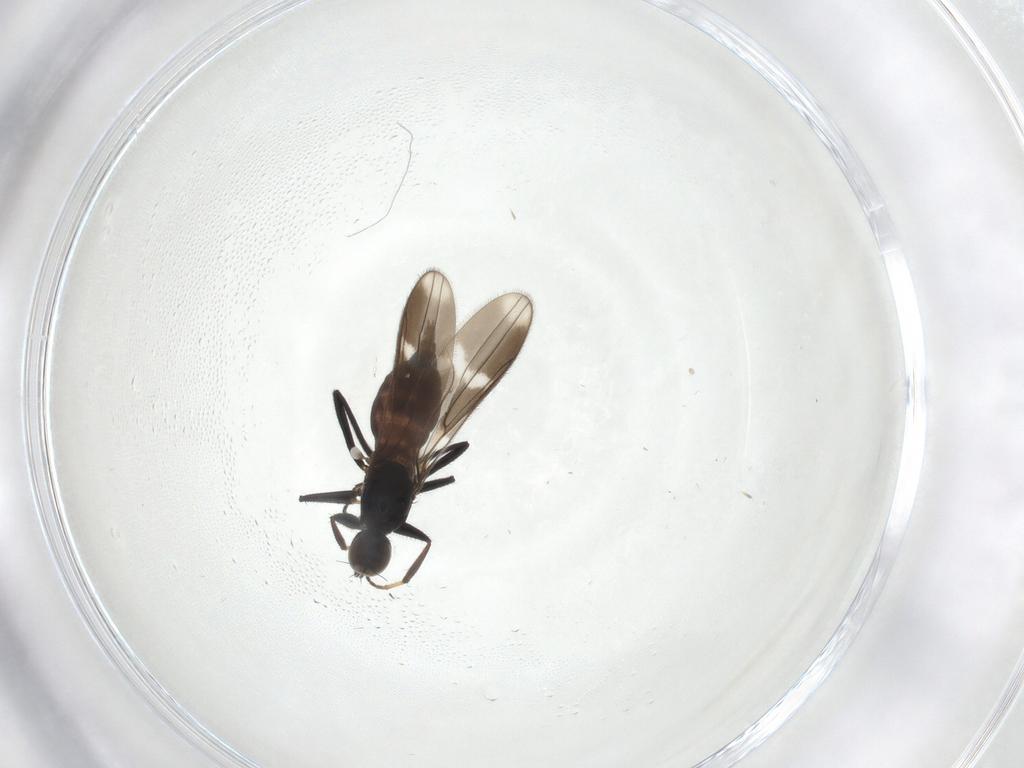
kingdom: Animalia
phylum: Arthropoda
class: Insecta
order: Diptera
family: Hybotidae
